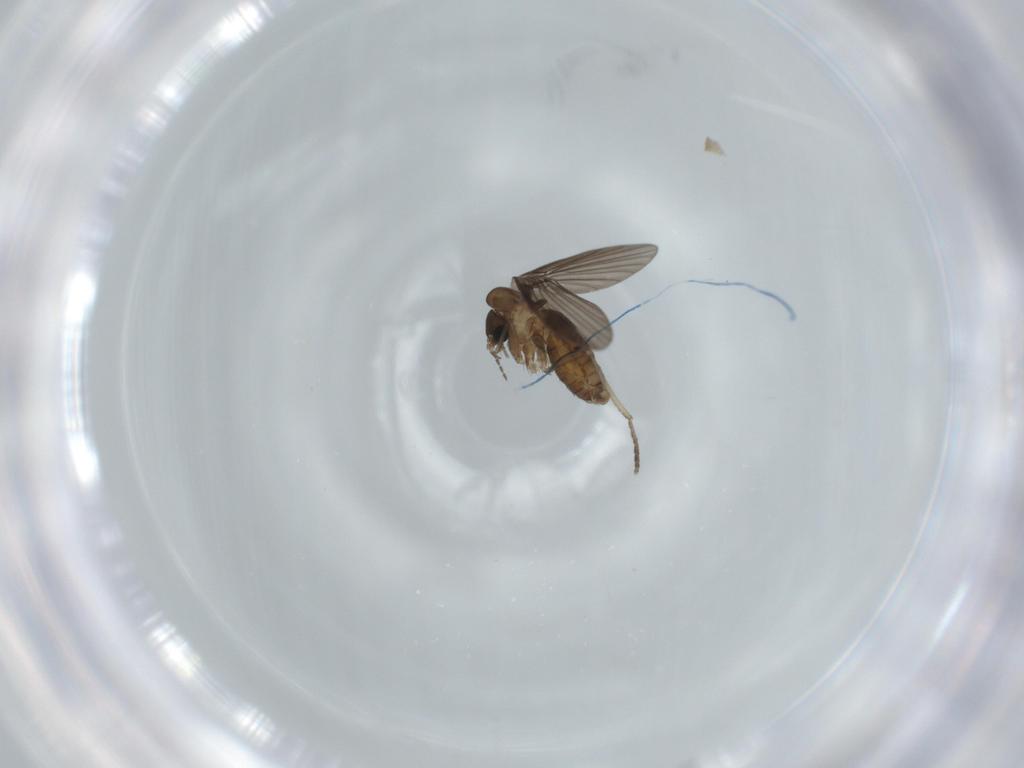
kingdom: Animalia
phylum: Arthropoda
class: Insecta
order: Diptera
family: Psychodidae
